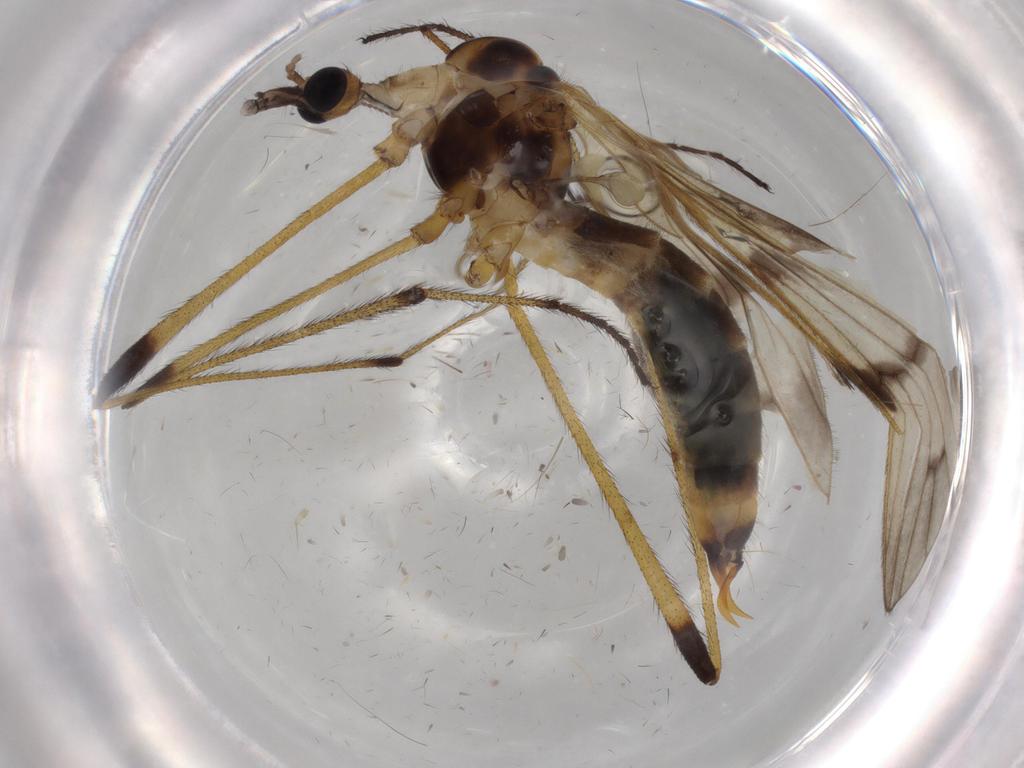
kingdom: Animalia
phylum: Arthropoda
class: Insecta
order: Diptera
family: Limoniidae
